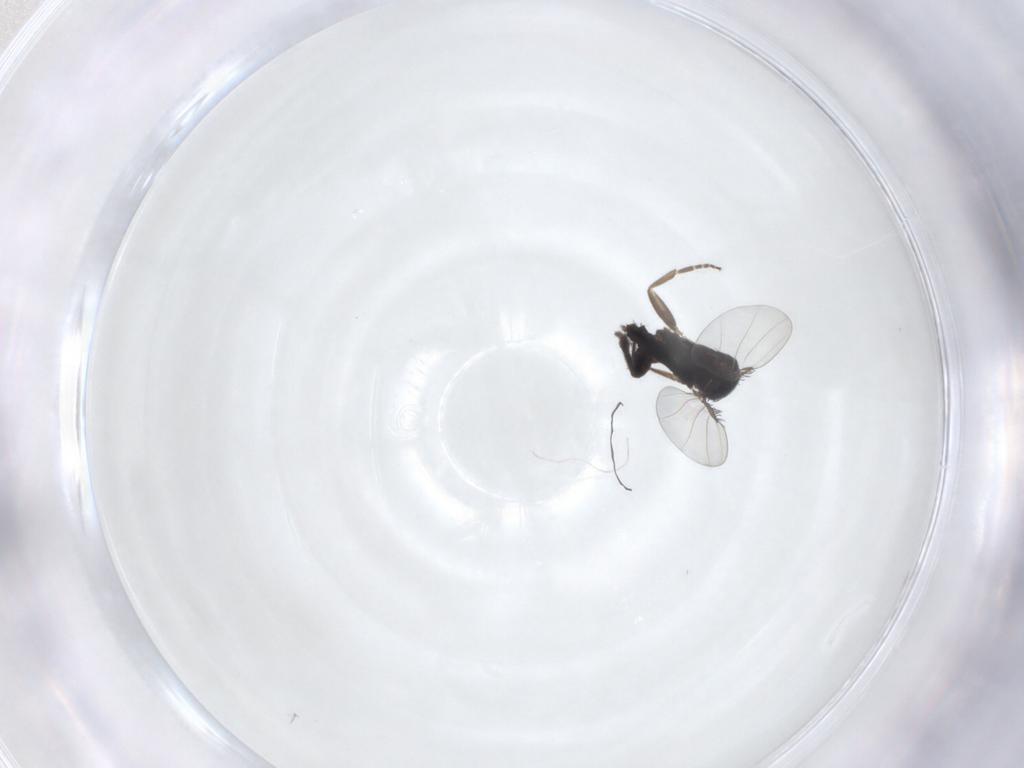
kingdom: Animalia
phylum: Arthropoda
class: Insecta
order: Diptera
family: Phoridae
